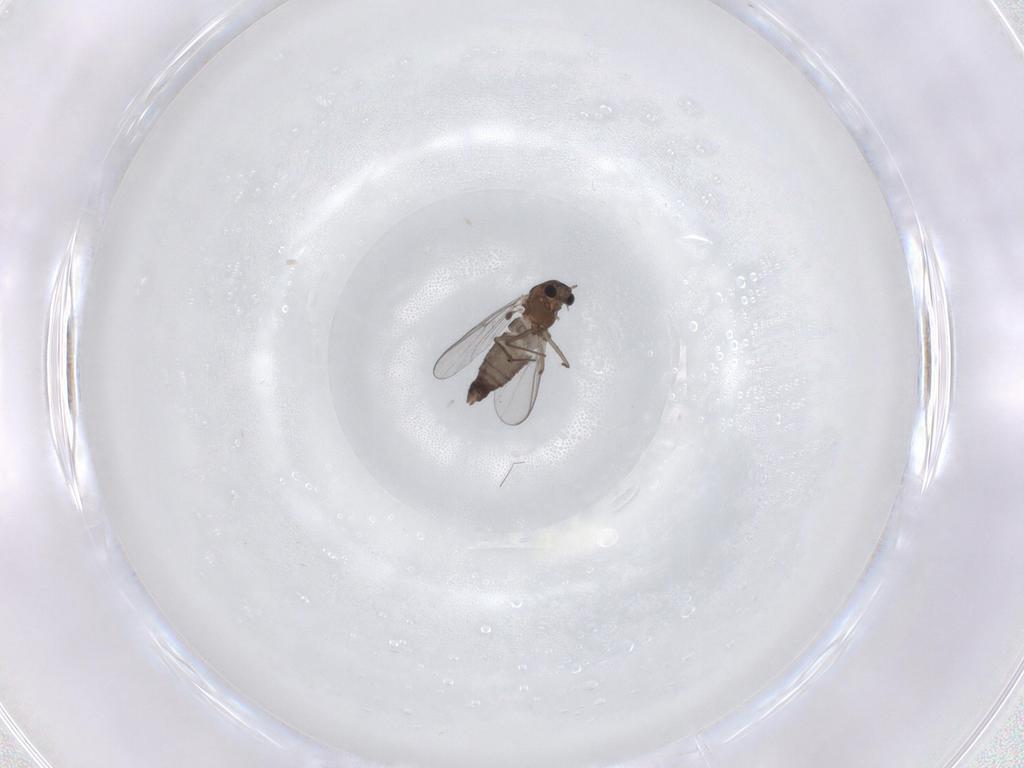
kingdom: Animalia
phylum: Arthropoda
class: Insecta
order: Diptera
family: Chironomidae
